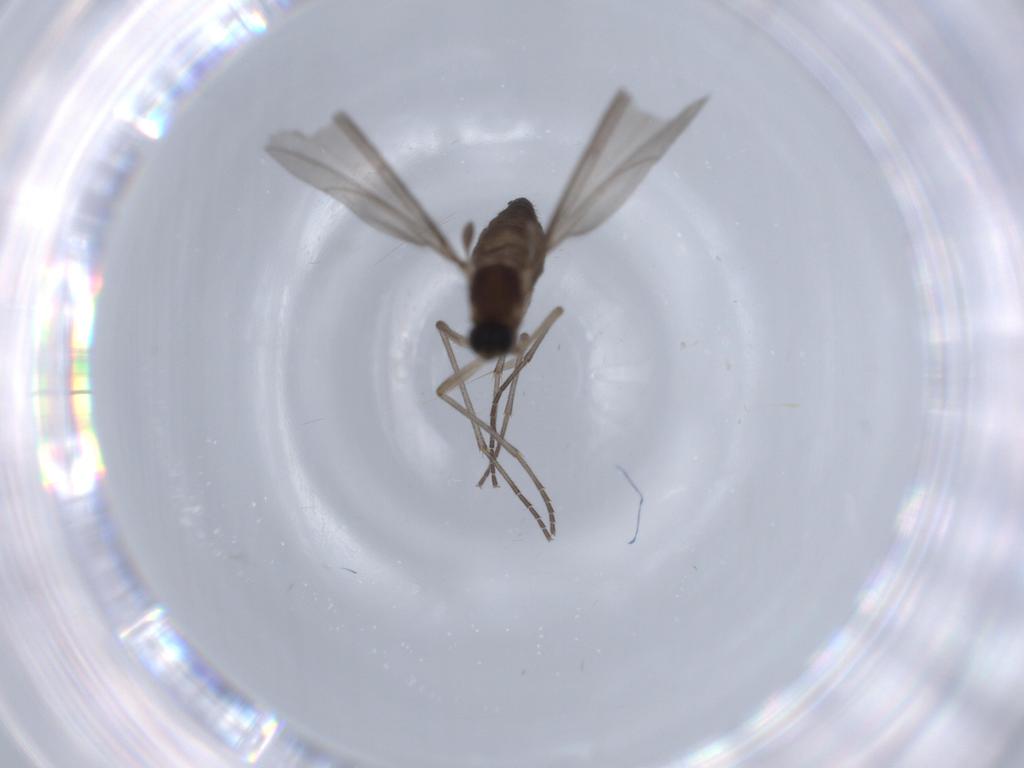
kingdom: Animalia
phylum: Arthropoda
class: Insecta
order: Diptera
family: Sciaridae
